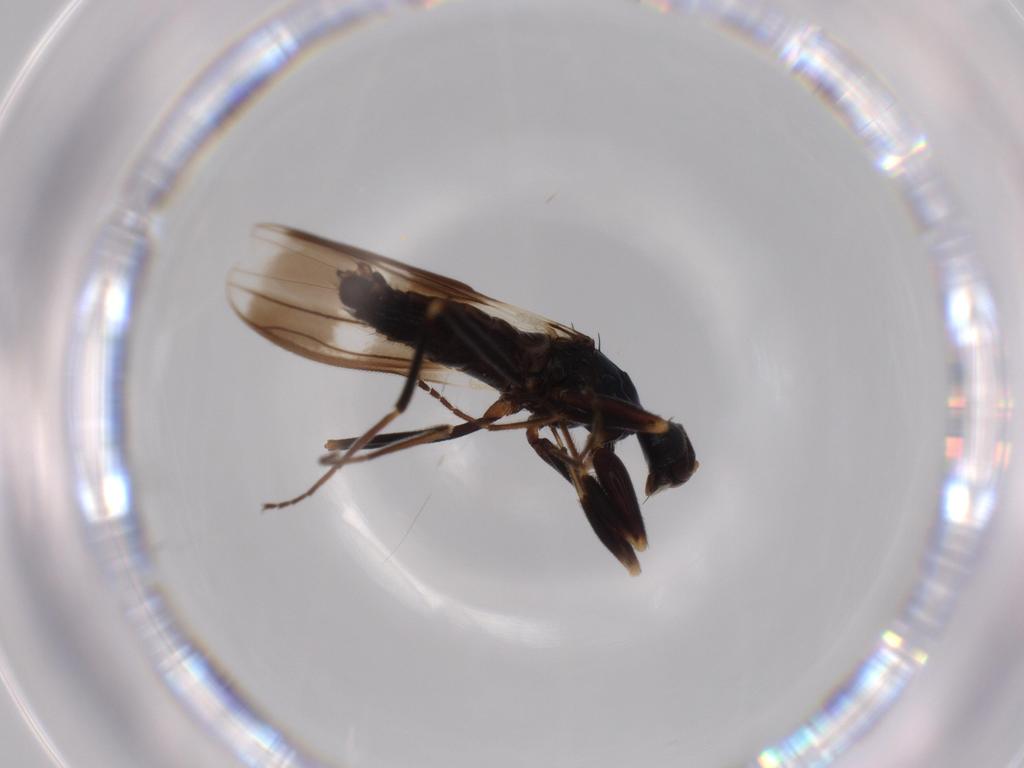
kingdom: Animalia
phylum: Arthropoda
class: Insecta
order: Diptera
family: Hybotidae
